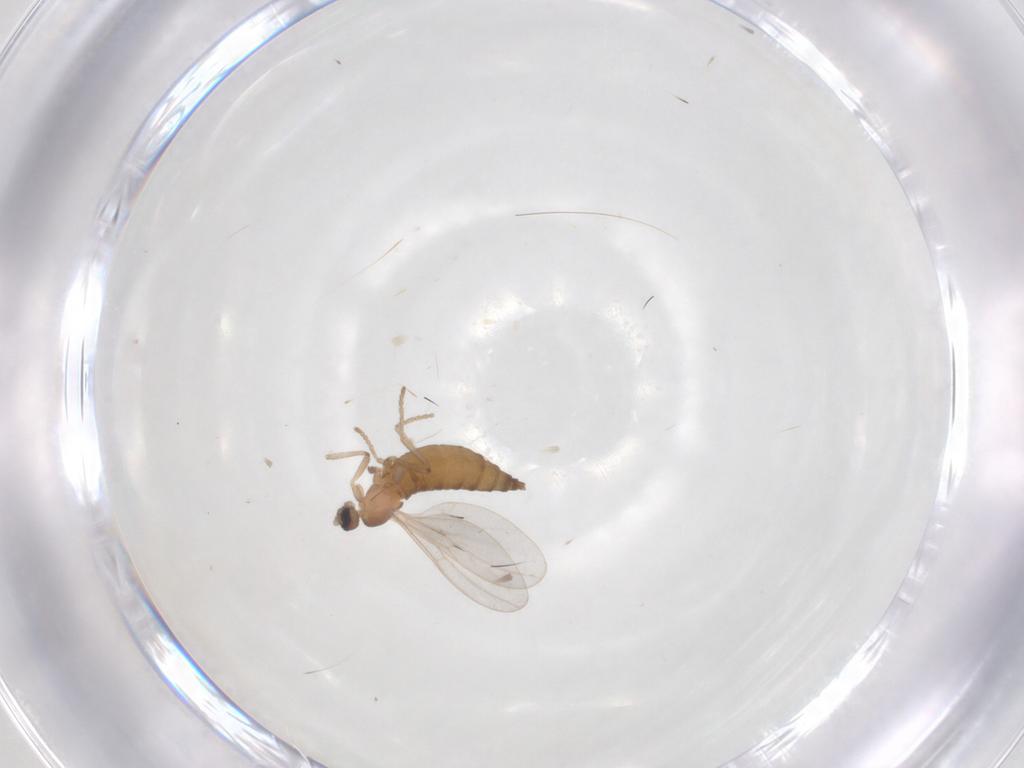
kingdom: Animalia
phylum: Arthropoda
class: Insecta
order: Diptera
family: Cecidomyiidae
